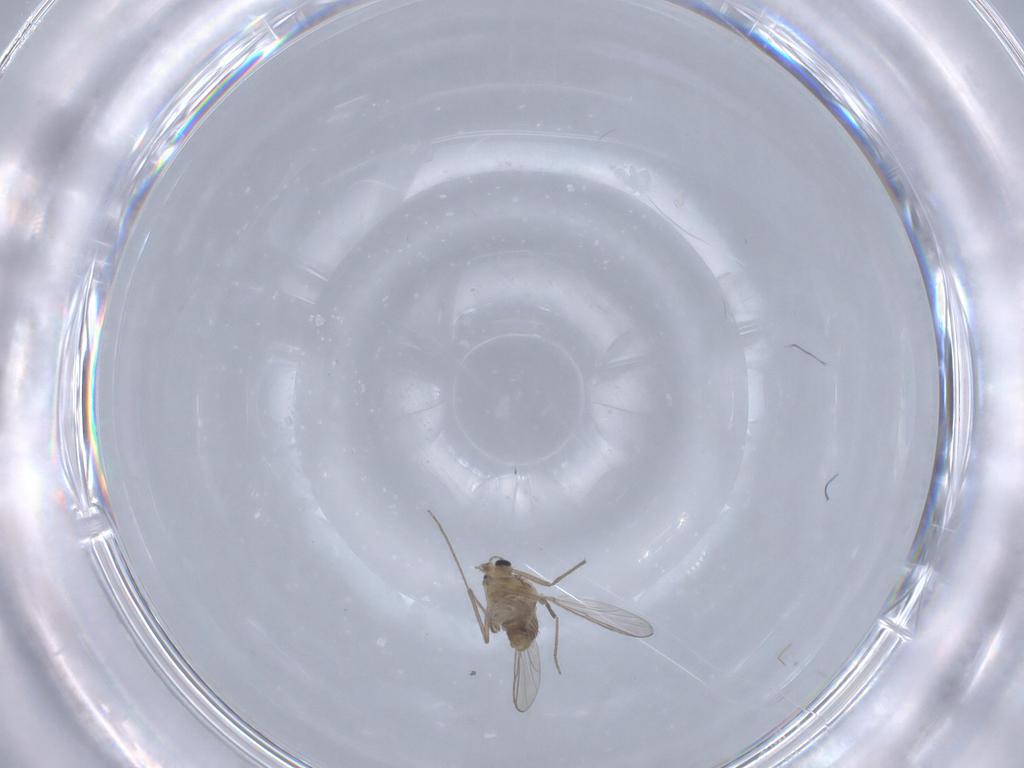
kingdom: Animalia
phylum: Arthropoda
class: Insecta
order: Diptera
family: Chironomidae
